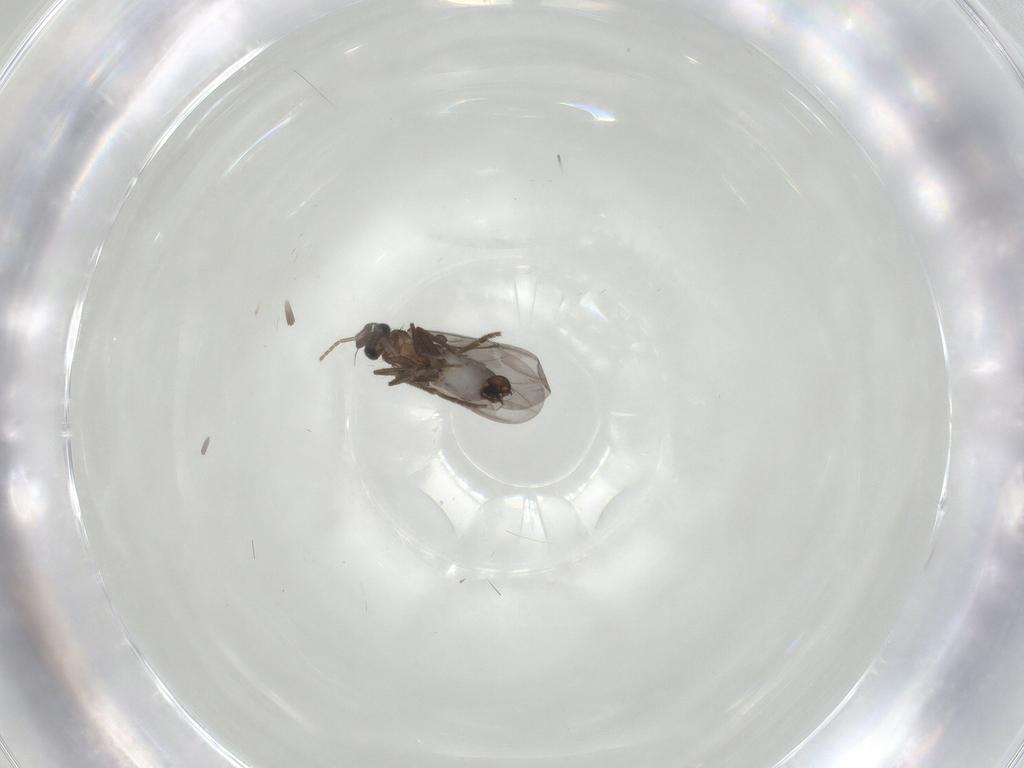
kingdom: Animalia
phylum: Arthropoda
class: Insecta
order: Diptera
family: Phoridae
